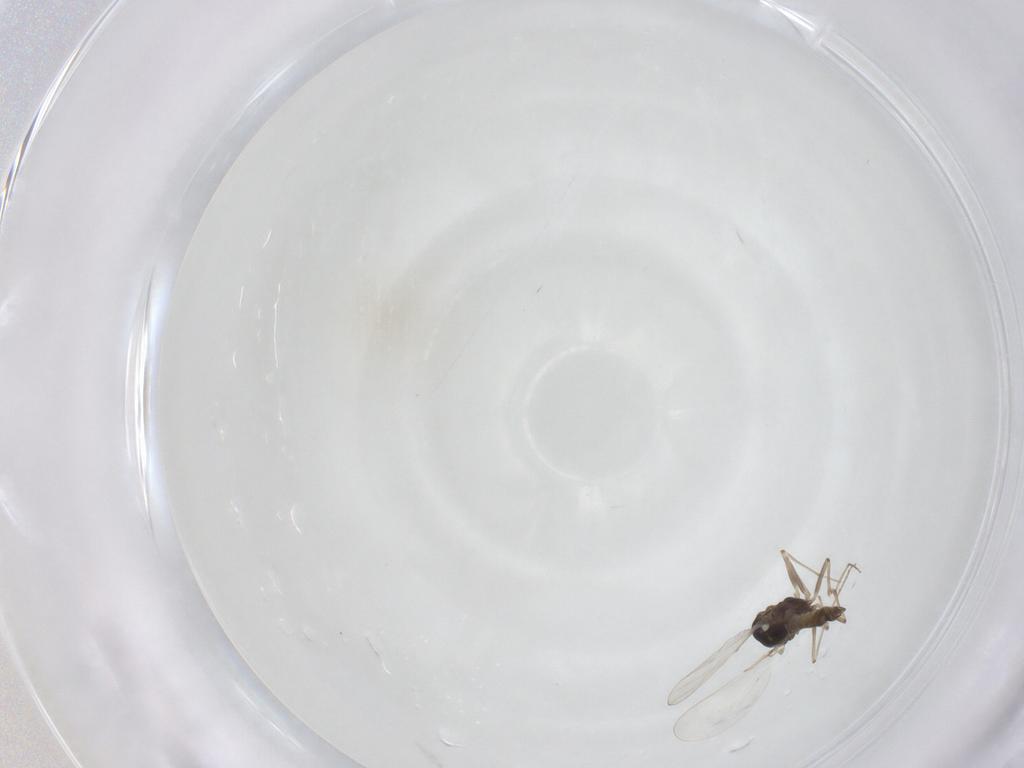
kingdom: Animalia
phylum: Arthropoda
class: Insecta
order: Diptera
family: Chironomidae
